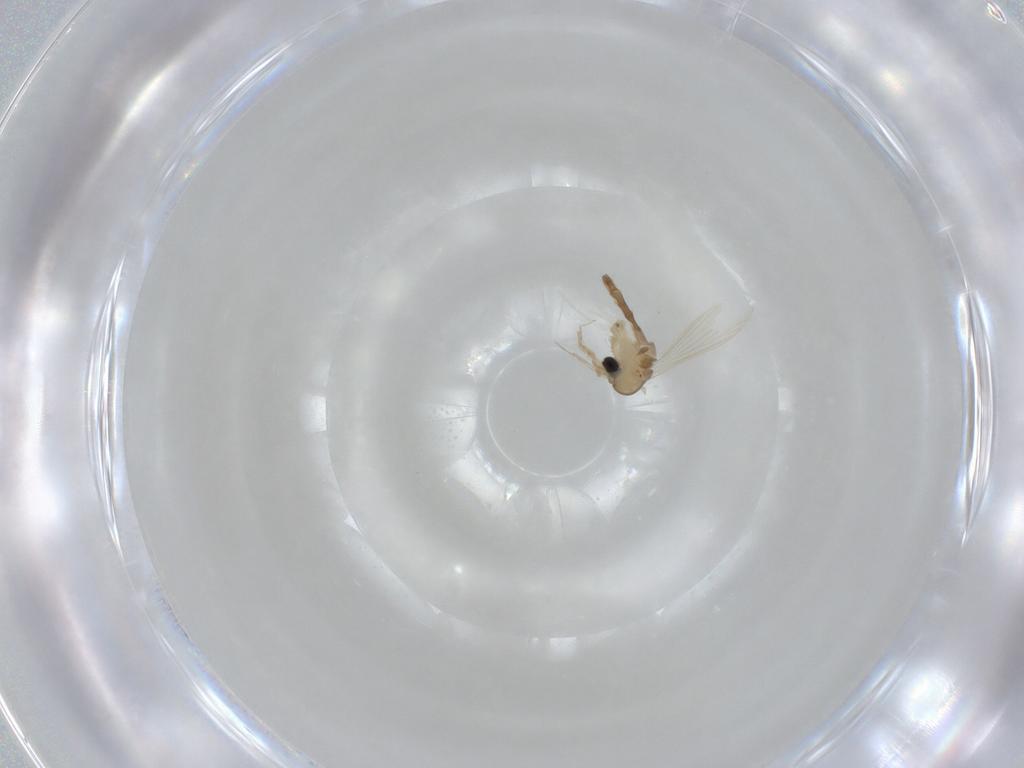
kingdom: Animalia
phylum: Arthropoda
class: Insecta
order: Diptera
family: Psychodidae
